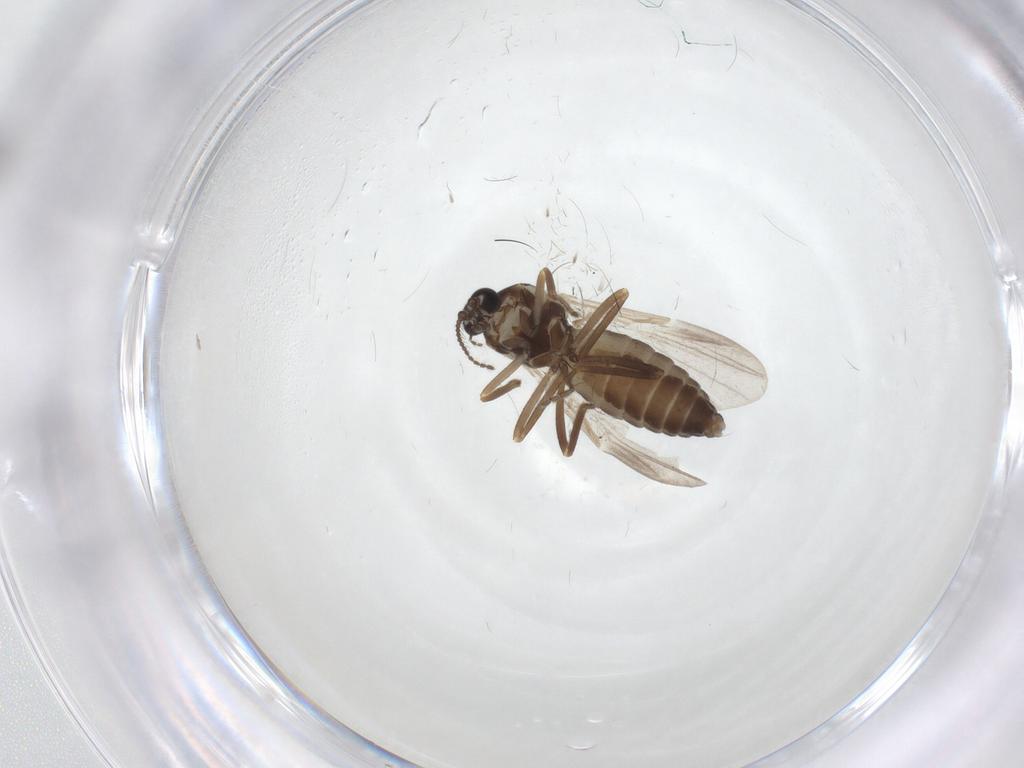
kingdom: Animalia
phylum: Arthropoda
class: Insecta
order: Diptera
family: Ceratopogonidae
